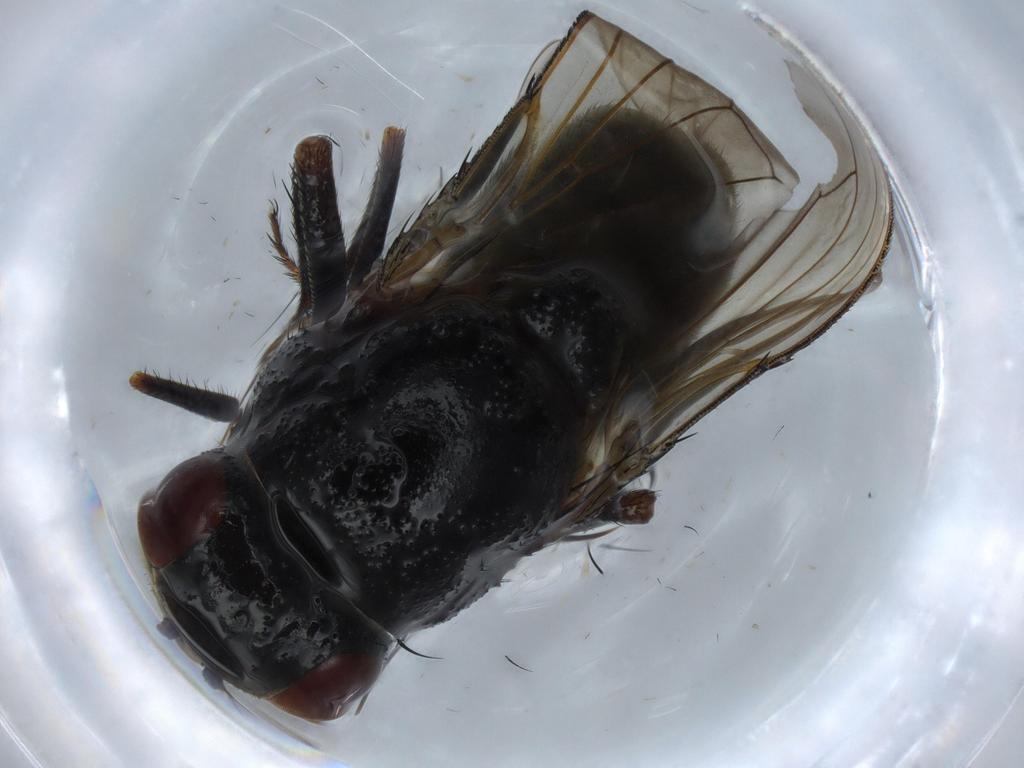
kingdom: Animalia
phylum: Arthropoda
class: Insecta
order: Diptera
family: Ephydridae
